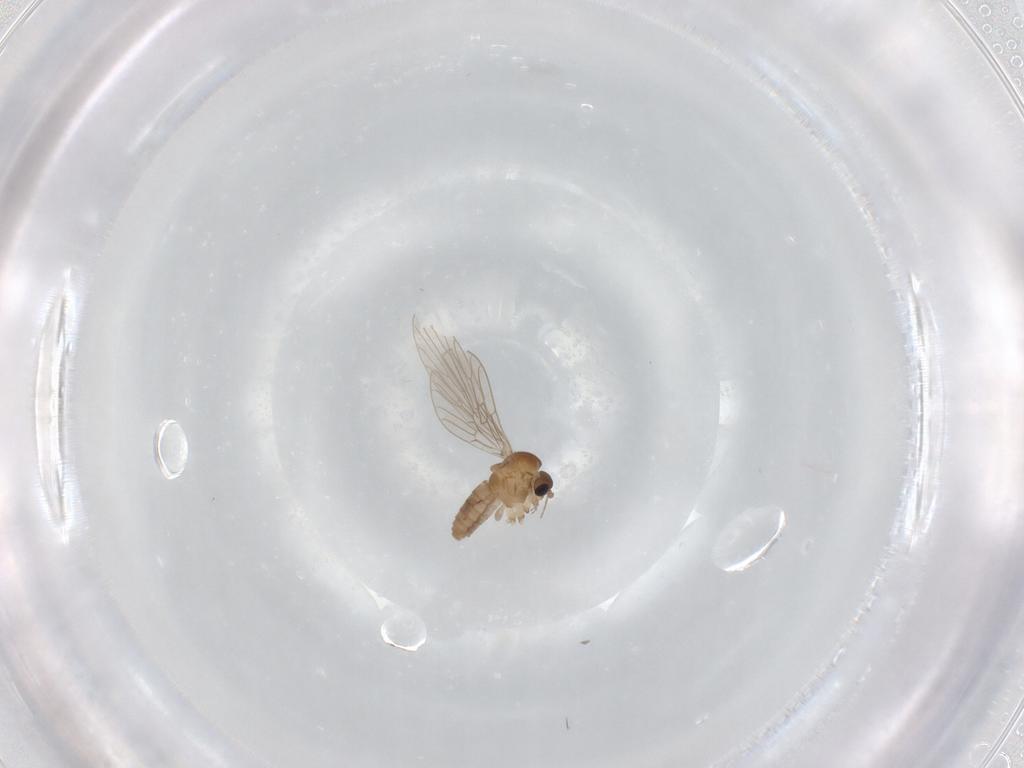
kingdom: Animalia
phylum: Arthropoda
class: Insecta
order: Diptera
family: Psychodidae
